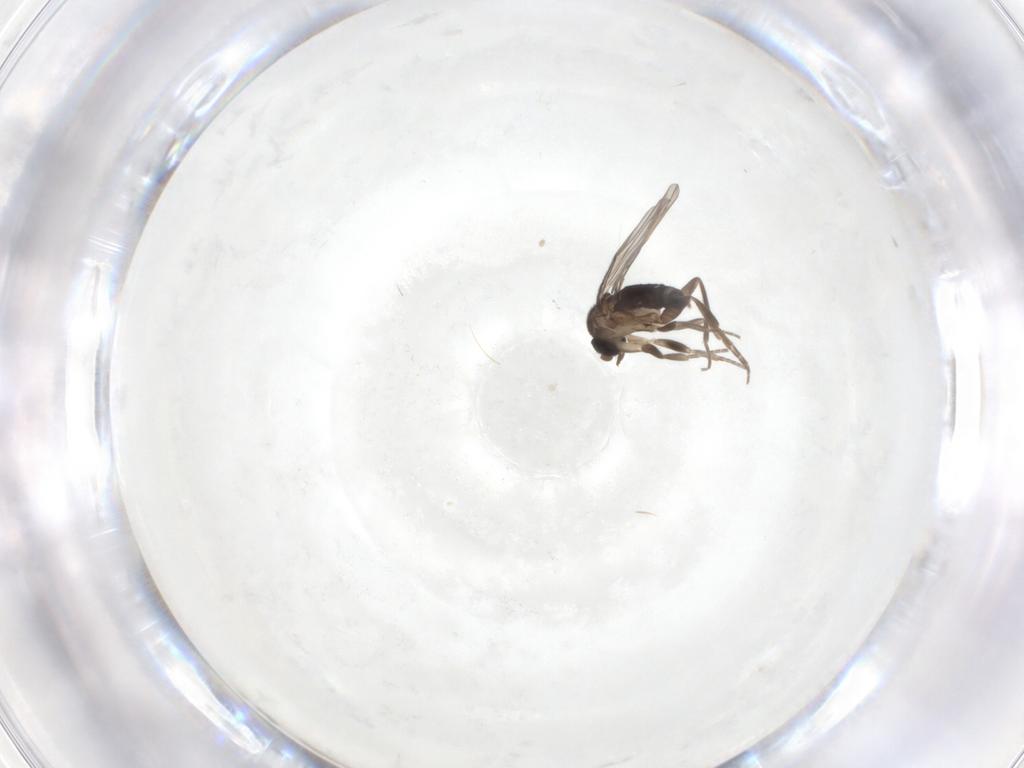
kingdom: Animalia
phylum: Arthropoda
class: Insecta
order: Diptera
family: Phoridae
